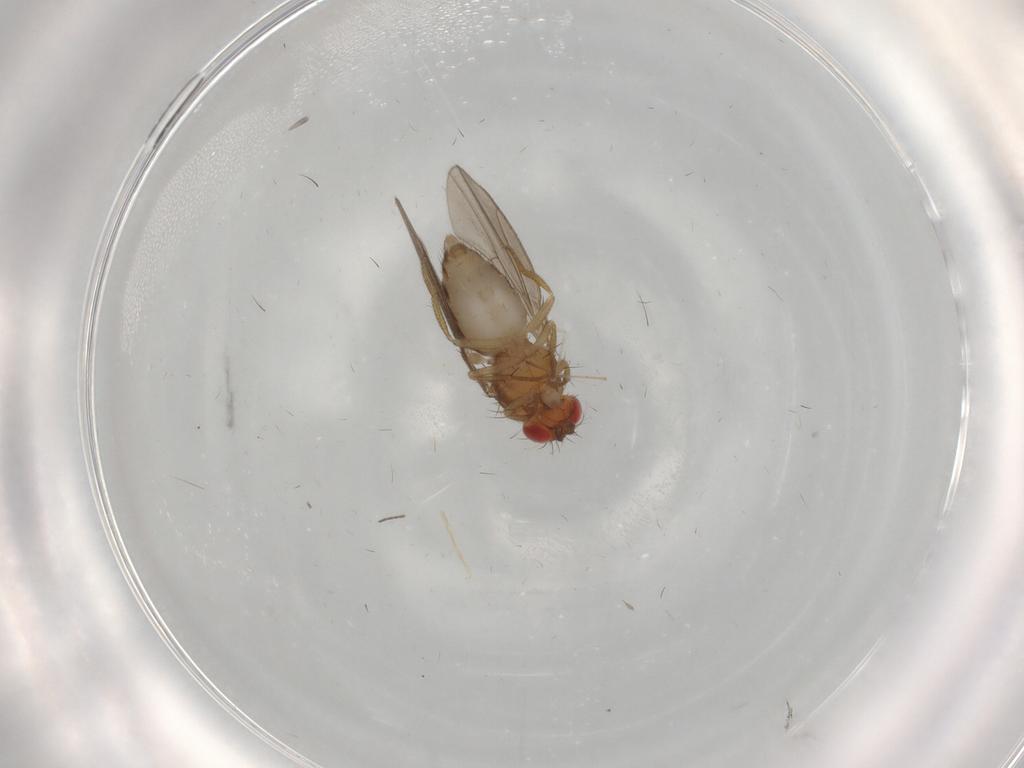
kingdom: Animalia
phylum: Arthropoda
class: Insecta
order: Diptera
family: Drosophilidae
